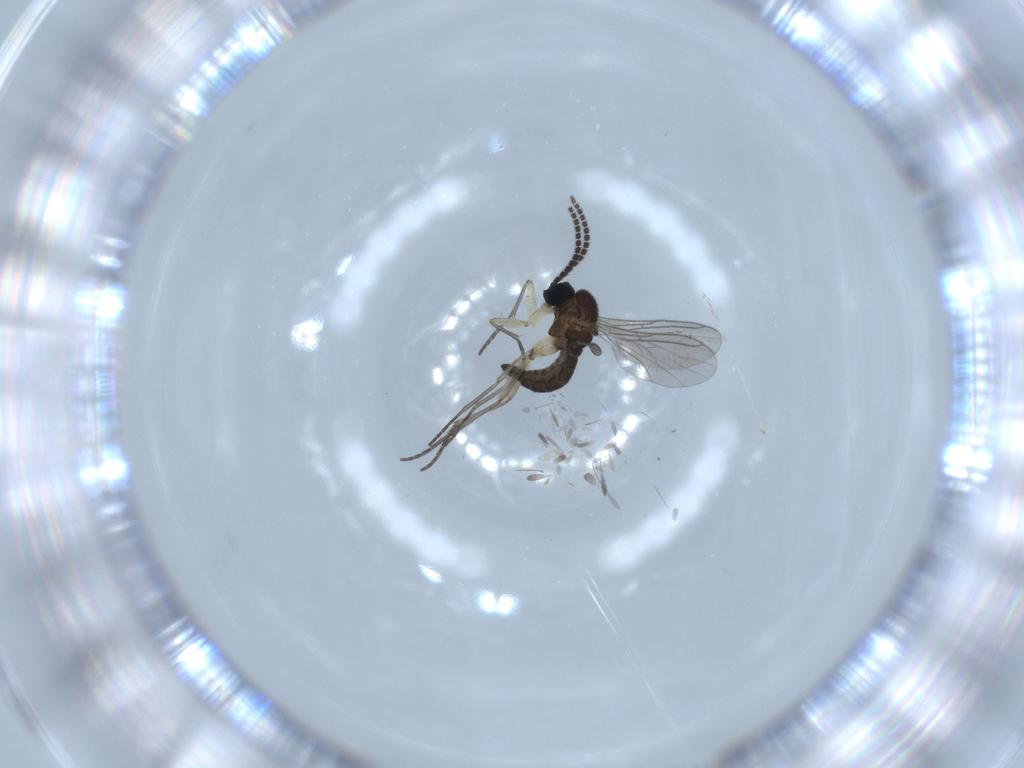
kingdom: Animalia
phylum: Arthropoda
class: Insecta
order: Diptera
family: Sciaridae
